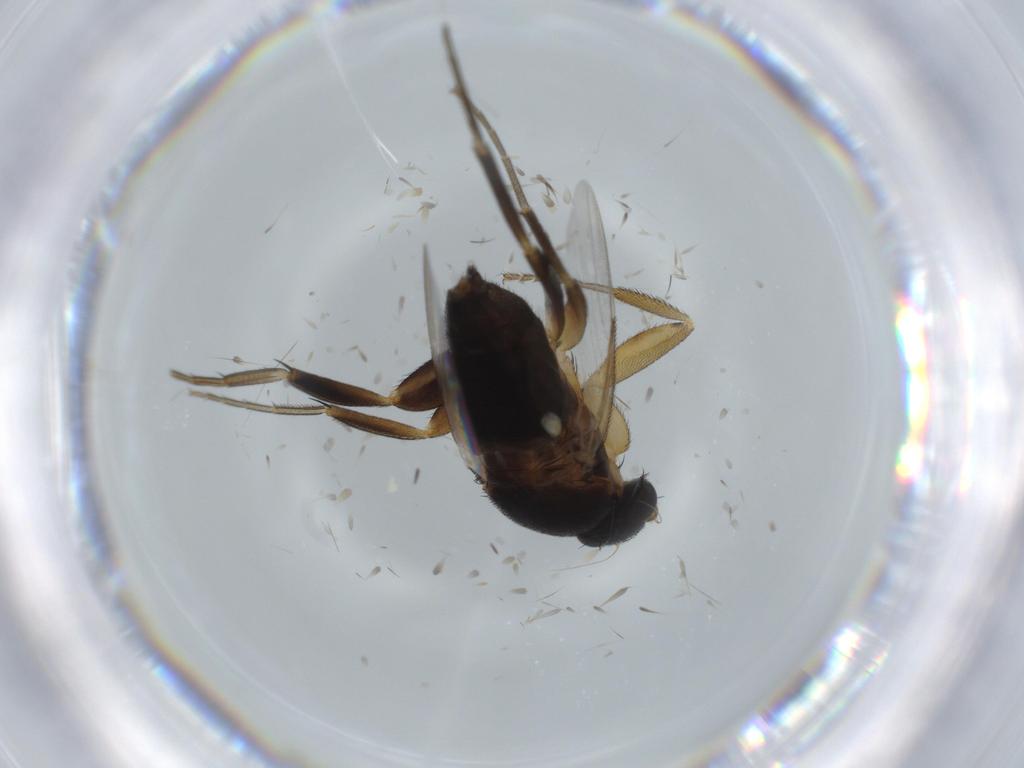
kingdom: Animalia
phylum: Arthropoda
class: Insecta
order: Diptera
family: Phoridae
